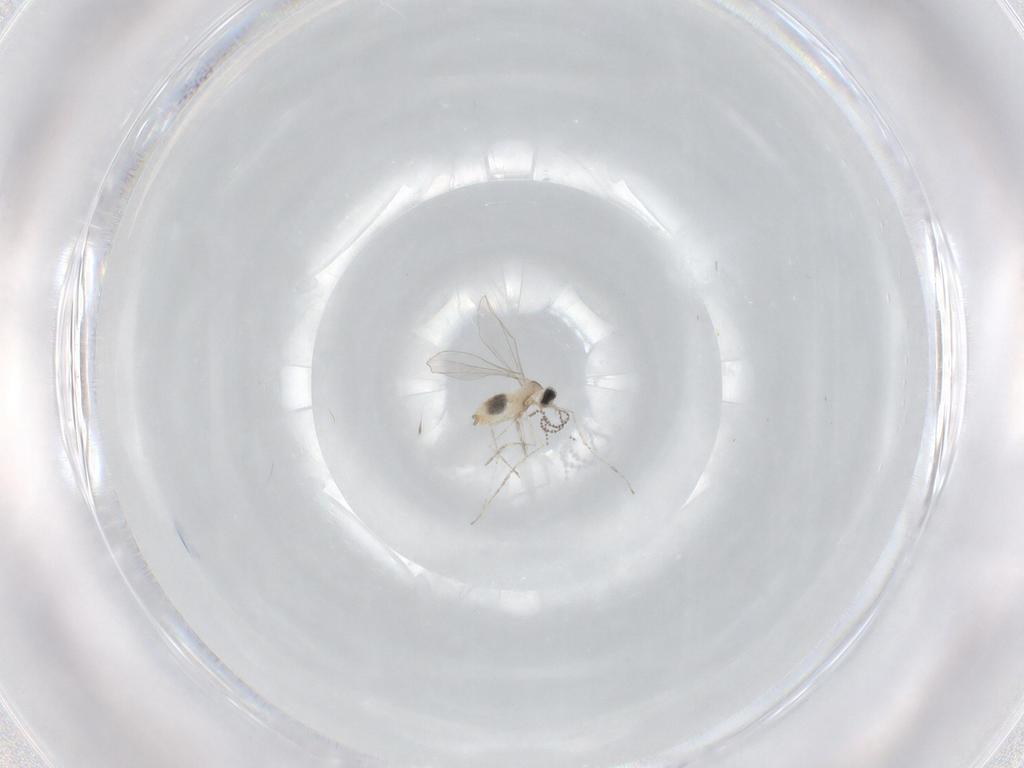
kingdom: Animalia
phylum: Arthropoda
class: Insecta
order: Diptera
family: Cecidomyiidae
